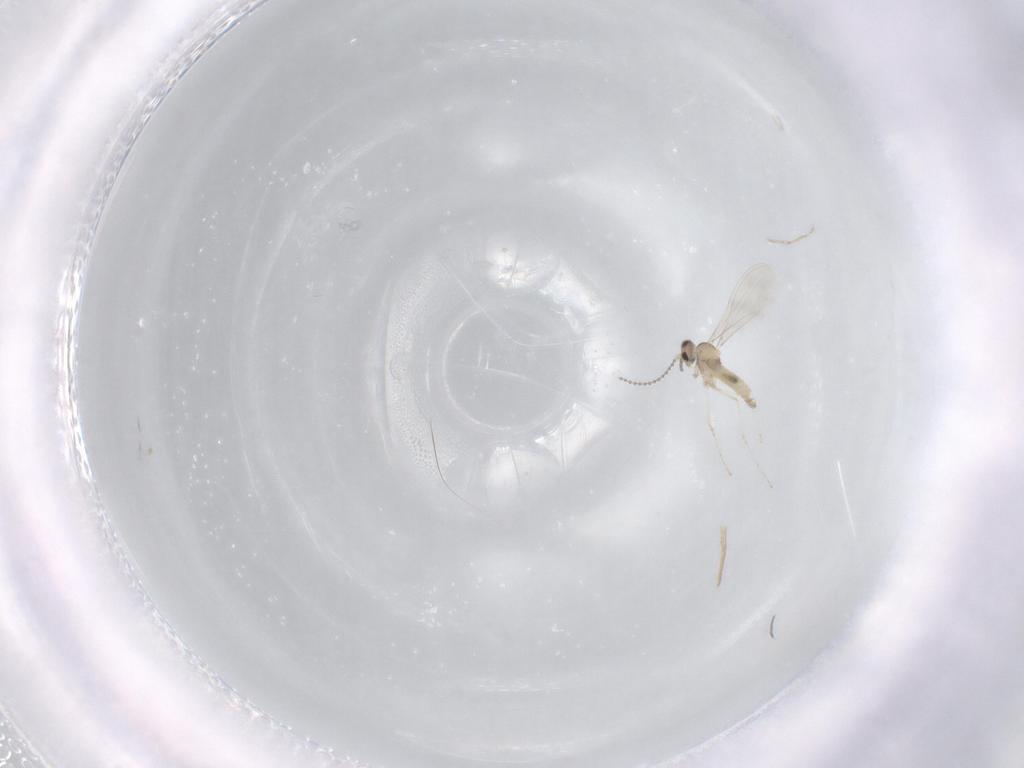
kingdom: Animalia
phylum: Arthropoda
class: Insecta
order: Diptera
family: Cecidomyiidae
